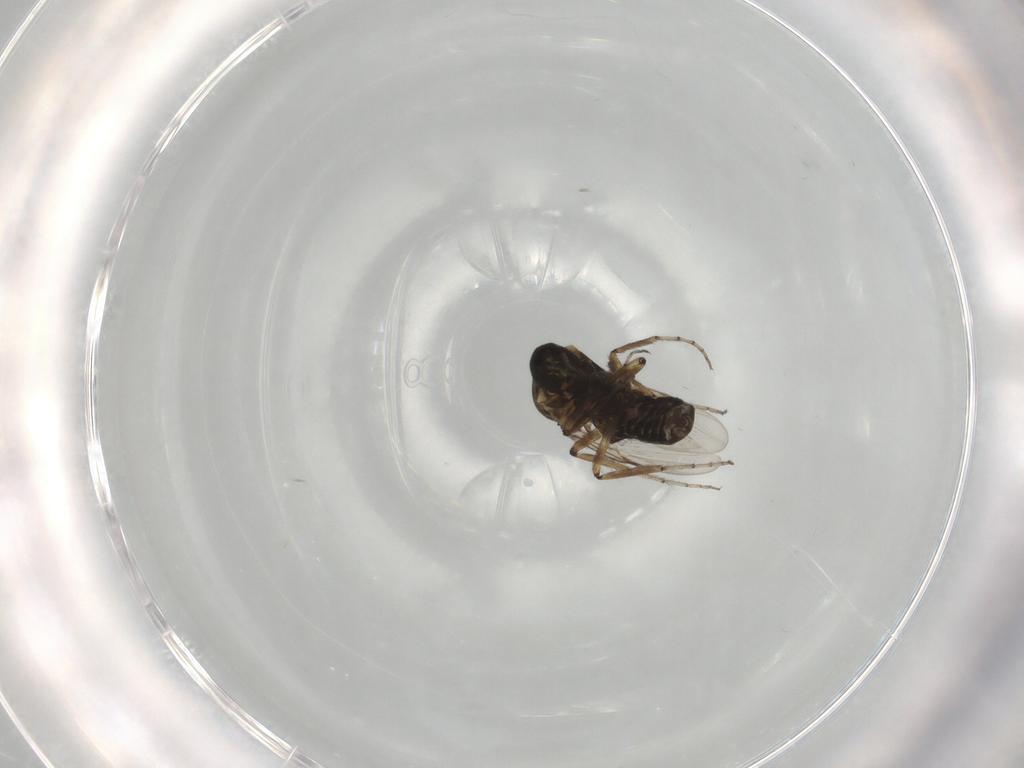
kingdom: Animalia
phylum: Arthropoda
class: Insecta
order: Diptera
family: Ceratopogonidae
